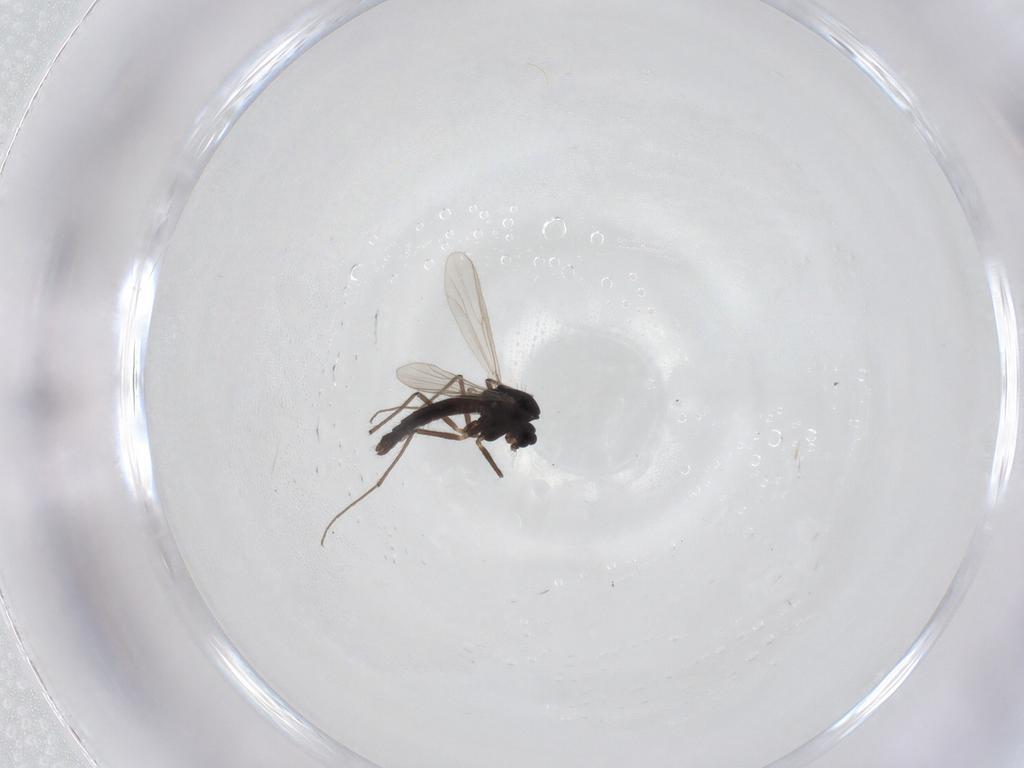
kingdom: Animalia
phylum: Arthropoda
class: Insecta
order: Diptera
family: Chironomidae
